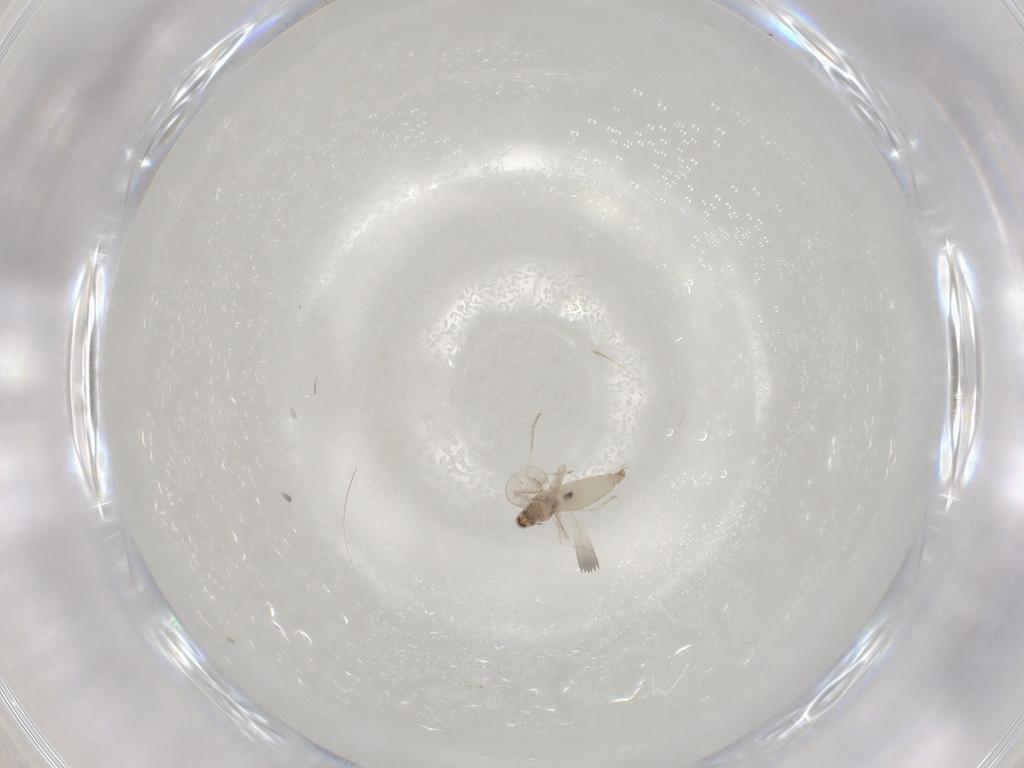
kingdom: Animalia
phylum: Arthropoda
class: Insecta
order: Diptera
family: Cecidomyiidae
